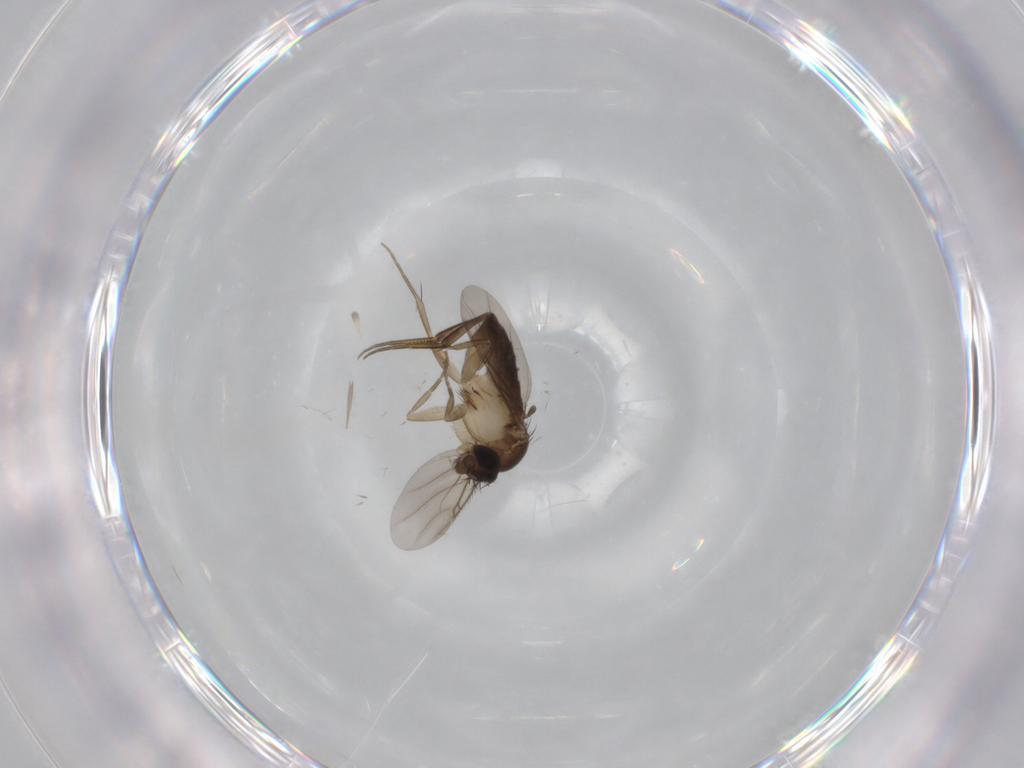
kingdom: Animalia
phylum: Arthropoda
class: Insecta
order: Diptera
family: Phoridae
